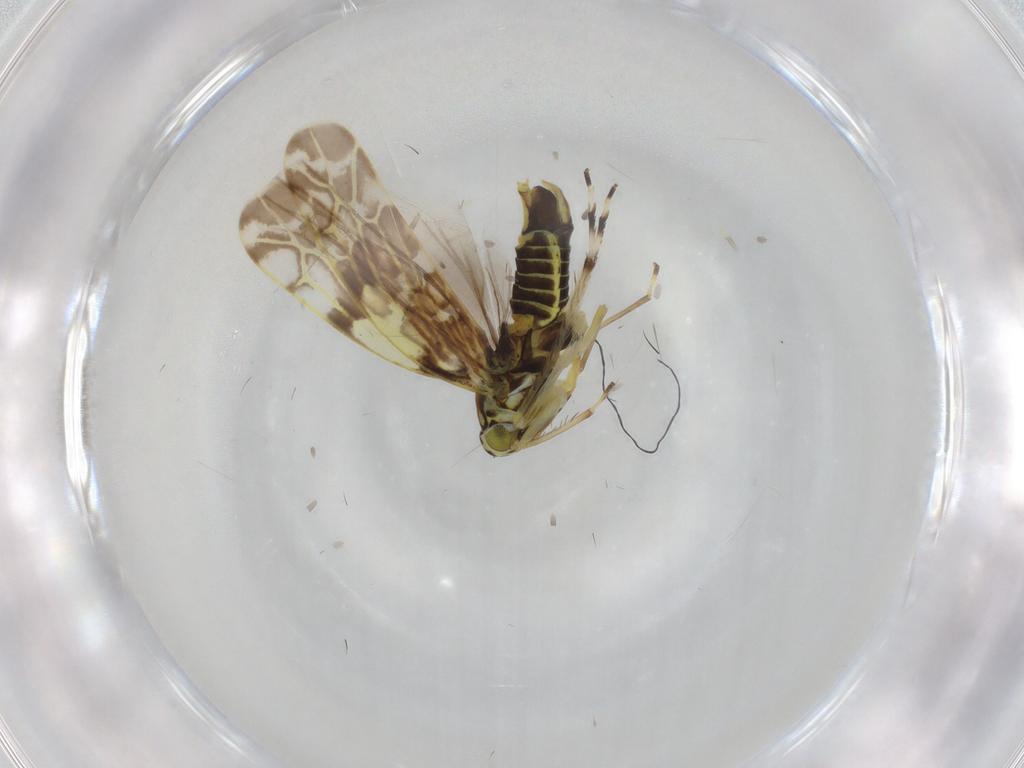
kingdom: Animalia
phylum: Arthropoda
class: Insecta
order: Hemiptera
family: Cicadellidae
